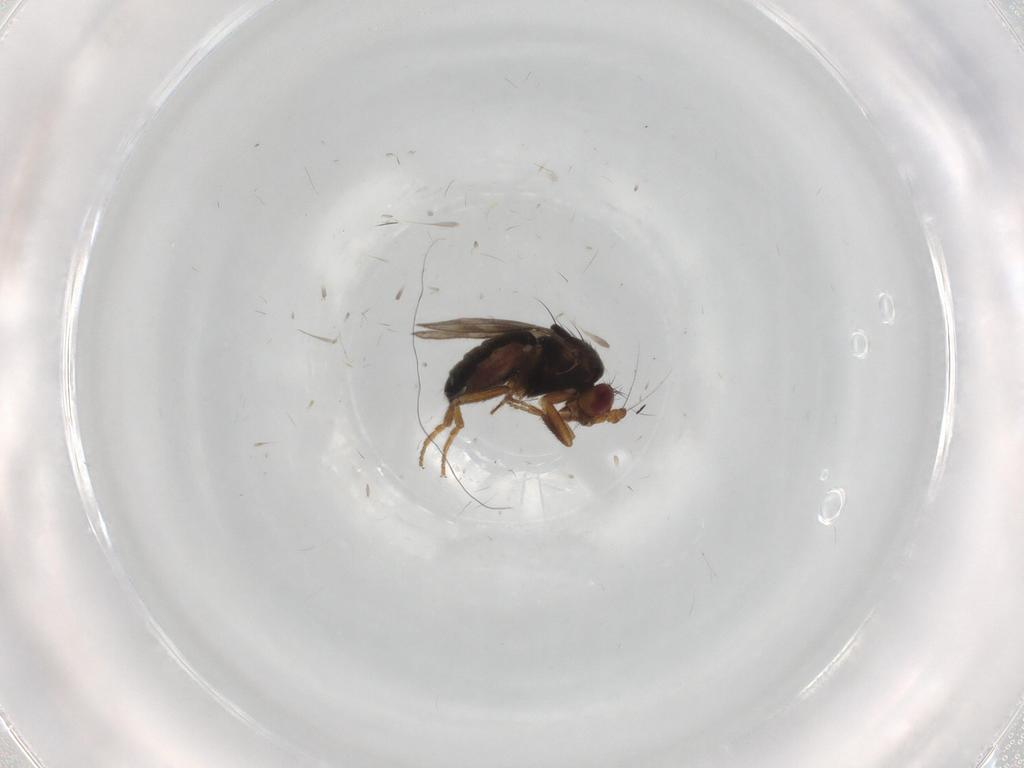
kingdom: Animalia
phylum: Arthropoda
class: Insecta
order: Diptera
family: Sphaeroceridae
